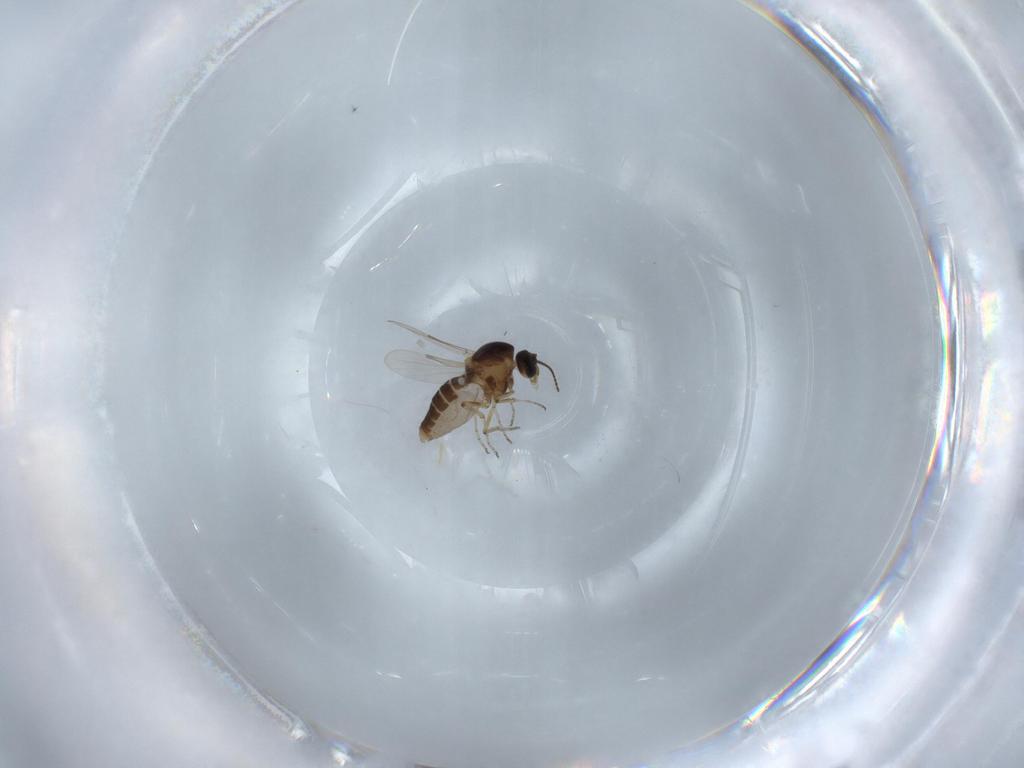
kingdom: Animalia
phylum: Arthropoda
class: Insecta
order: Diptera
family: Ceratopogonidae
